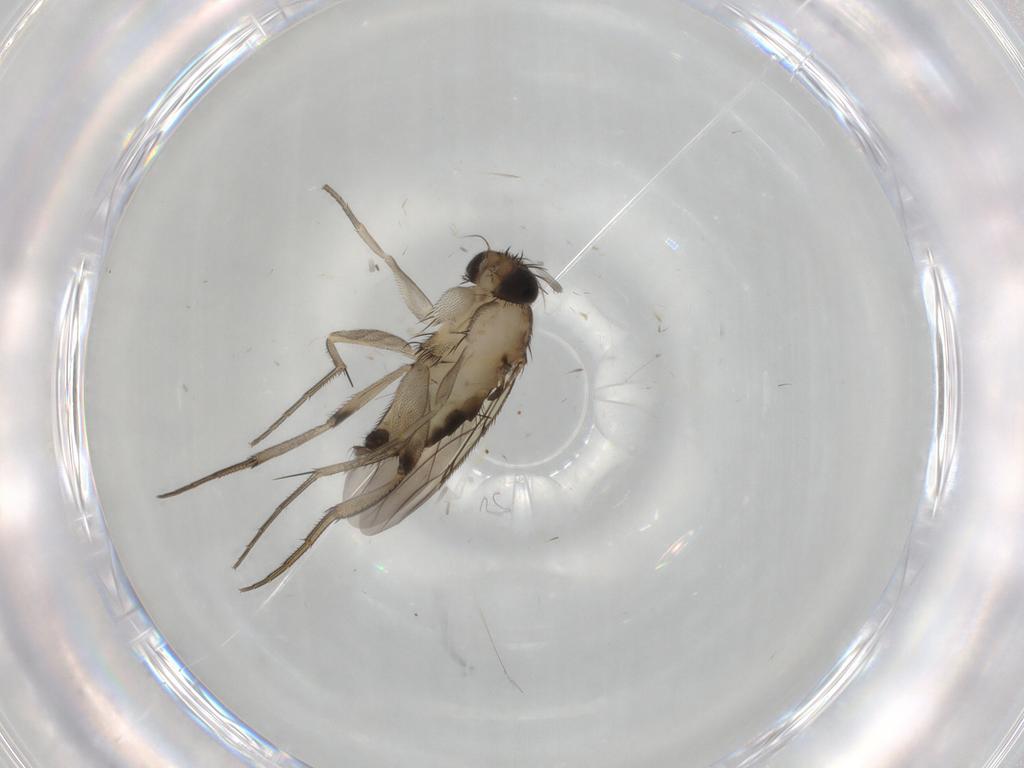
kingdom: Animalia
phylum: Arthropoda
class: Insecta
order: Diptera
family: Phoridae
